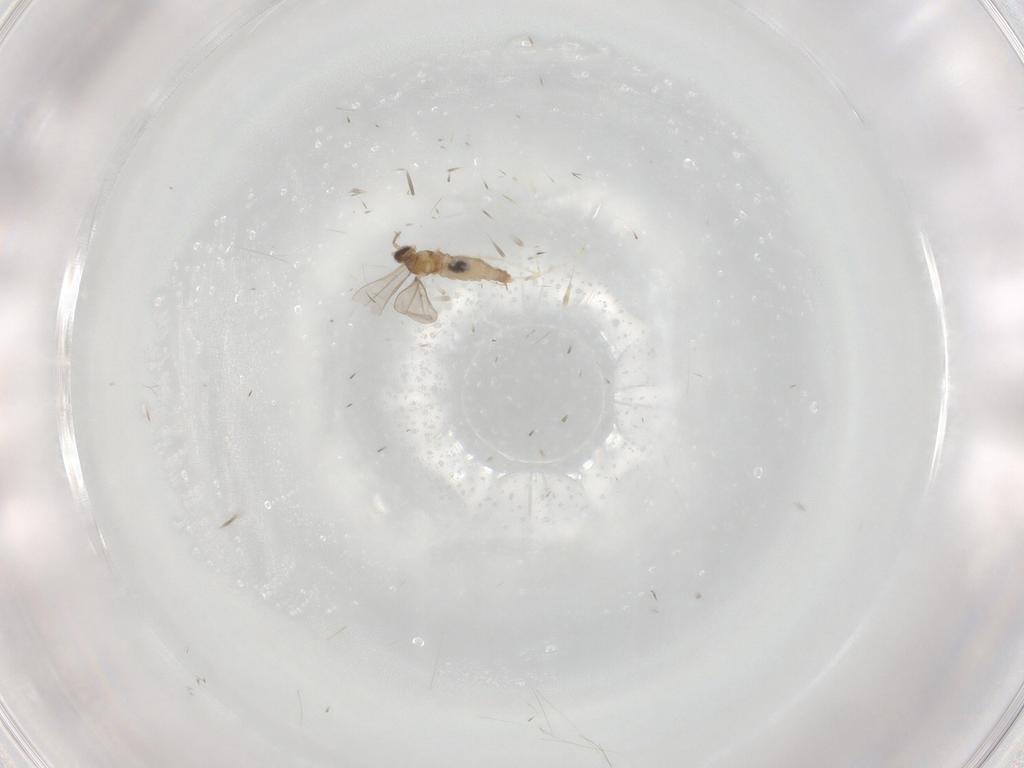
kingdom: Animalia
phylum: Arthropoda
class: Insecta
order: Diptera
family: Cecidomyiidae
